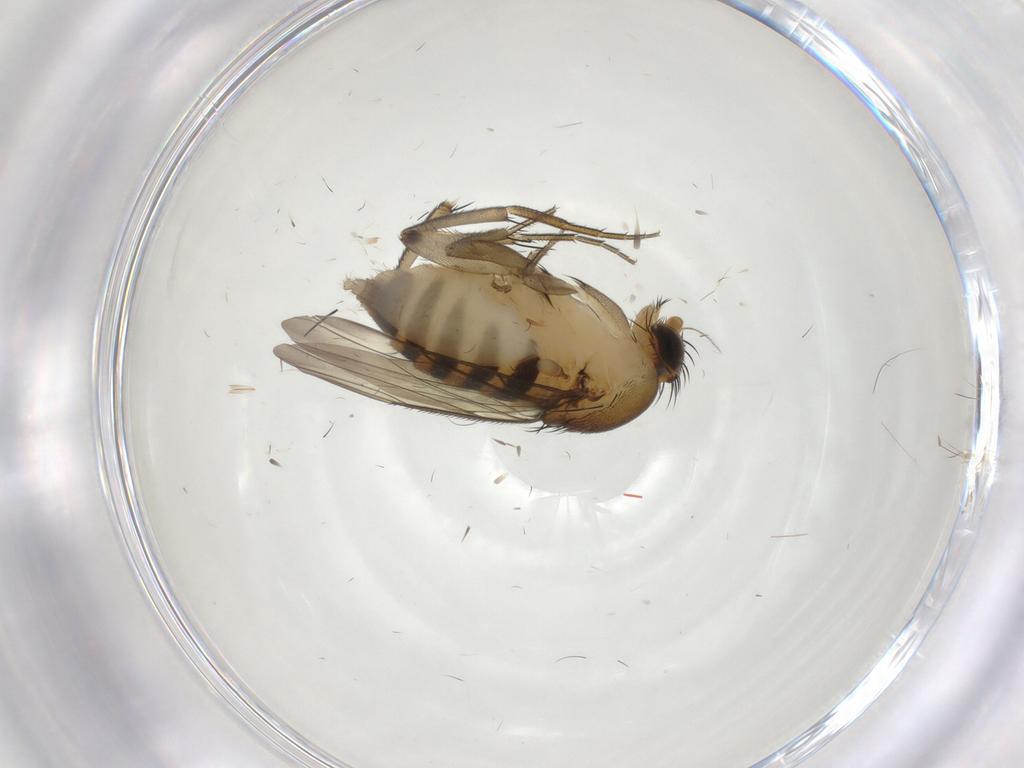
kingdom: Animalia
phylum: Arthropoda
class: Insecta
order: Diptera
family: Phoridae
